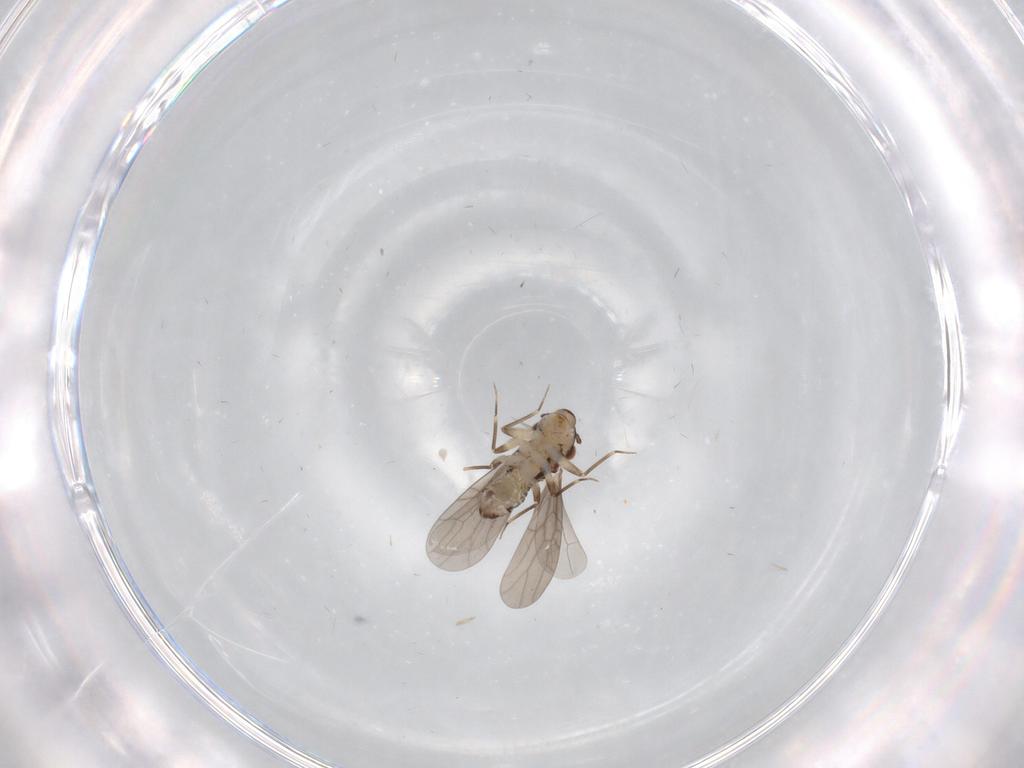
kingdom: Animalia
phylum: Arthropoda
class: Insecta
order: Psocodea
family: Lepidopsocidae
